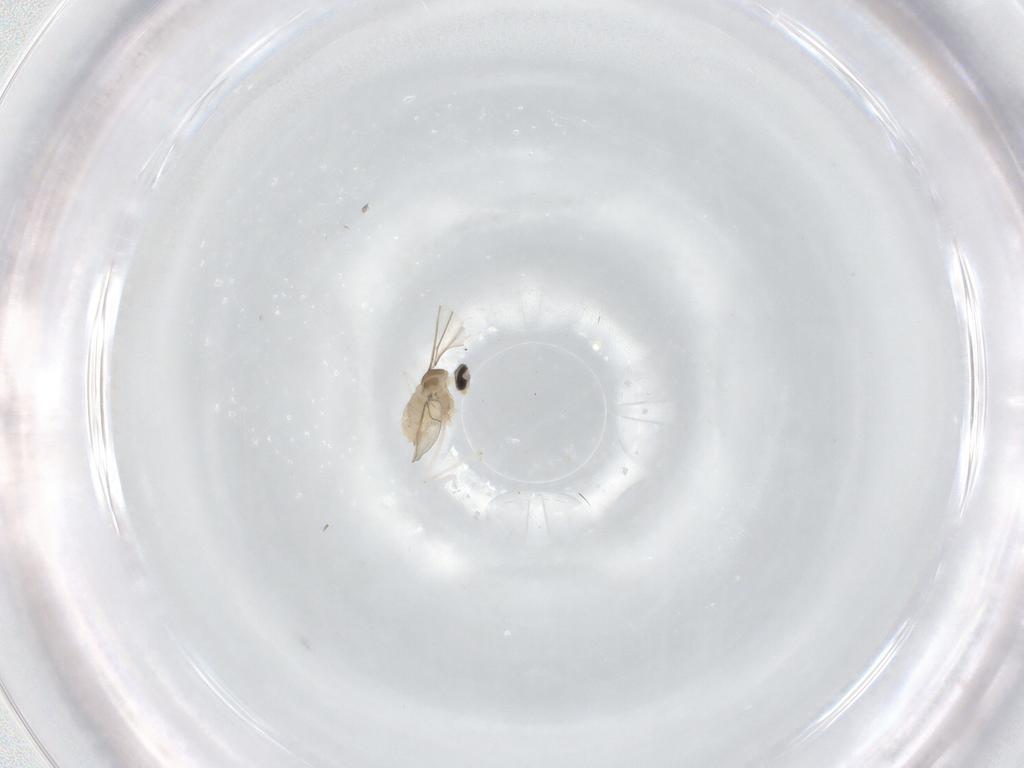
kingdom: Animalia
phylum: Arthropoda
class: Insecta
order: Diptera
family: Cecidomyiidae
